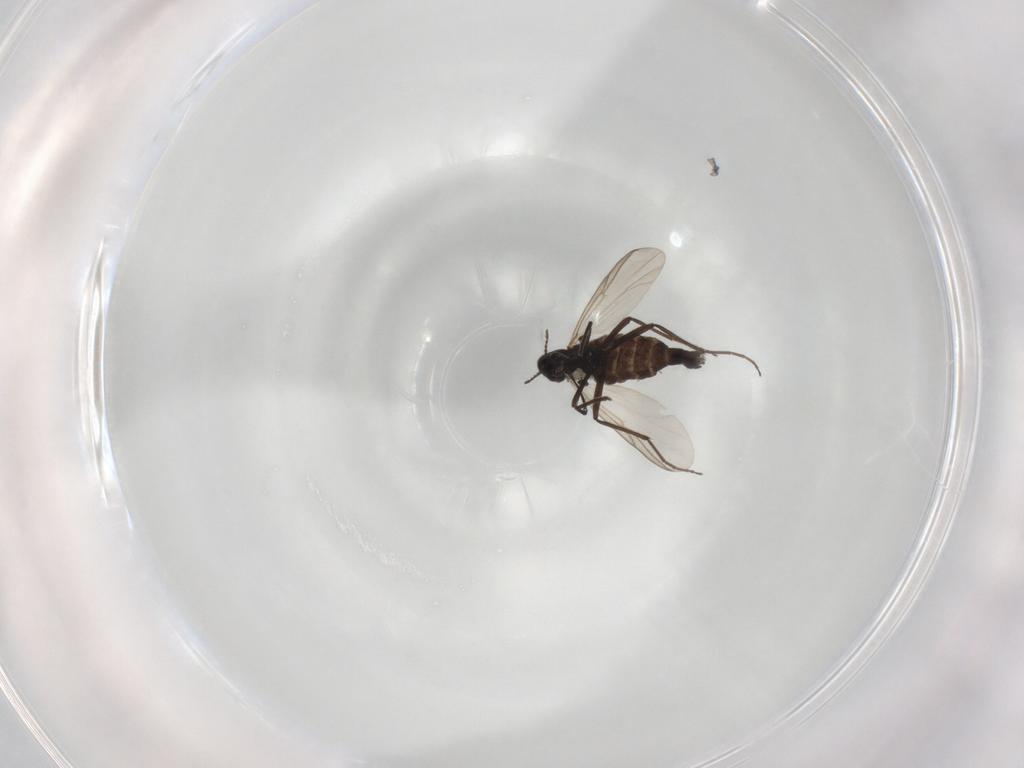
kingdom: Animalia
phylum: Arthropoda
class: Insecta
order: Diptera
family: Chironomidae
